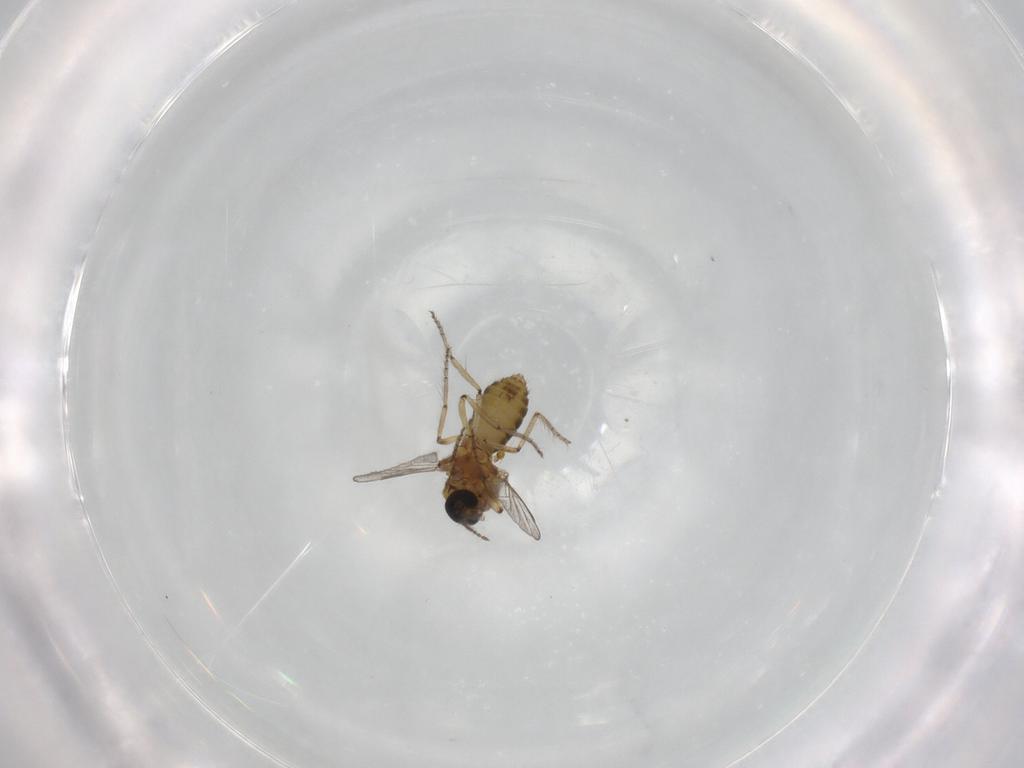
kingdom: Animalia
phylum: Arthropoda
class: Insecta
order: Diptera
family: Ceratopogonidae
